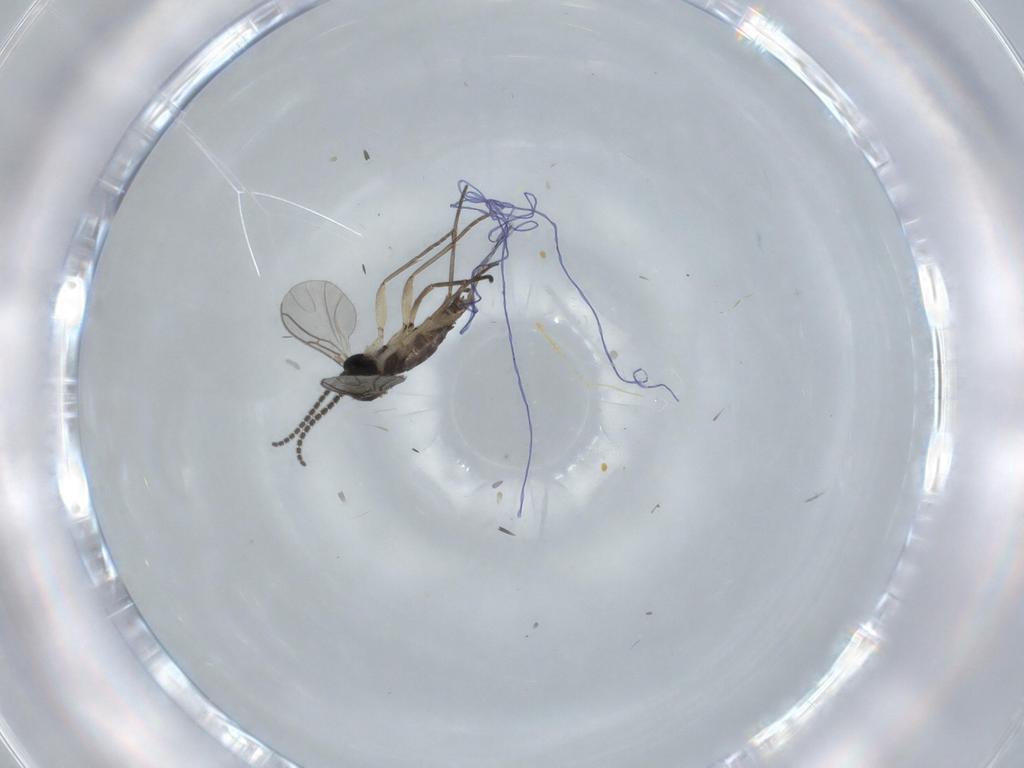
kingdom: Animalia
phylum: Arthropoda
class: Insecta
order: Diptera
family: Sciaridae
